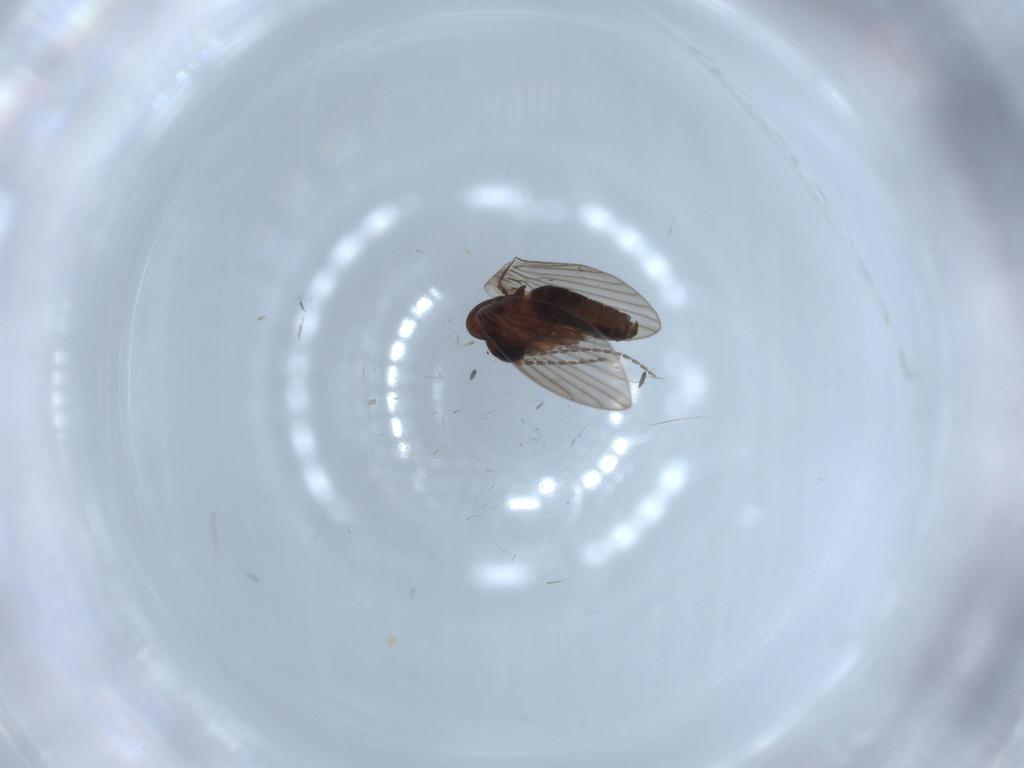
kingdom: Animalia
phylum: Arthropoda
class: Insecta
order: Diptera
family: Psychodidae
